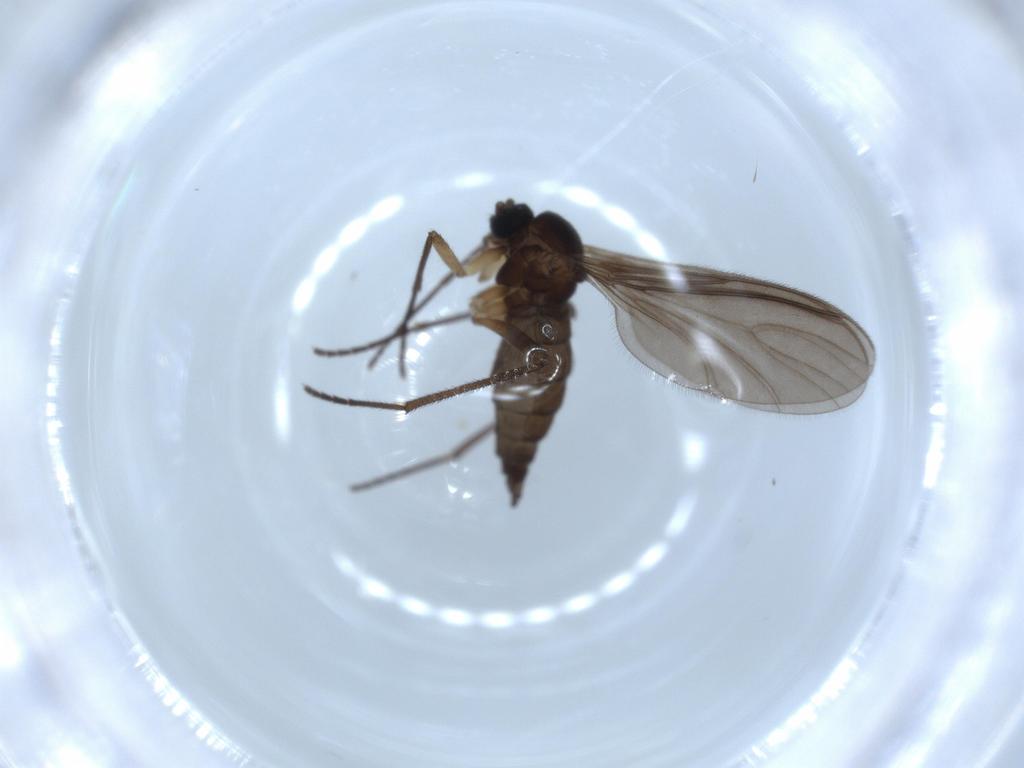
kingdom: Animalia
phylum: Arthropoda
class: Insecta
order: Diptera
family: Sciaridae
